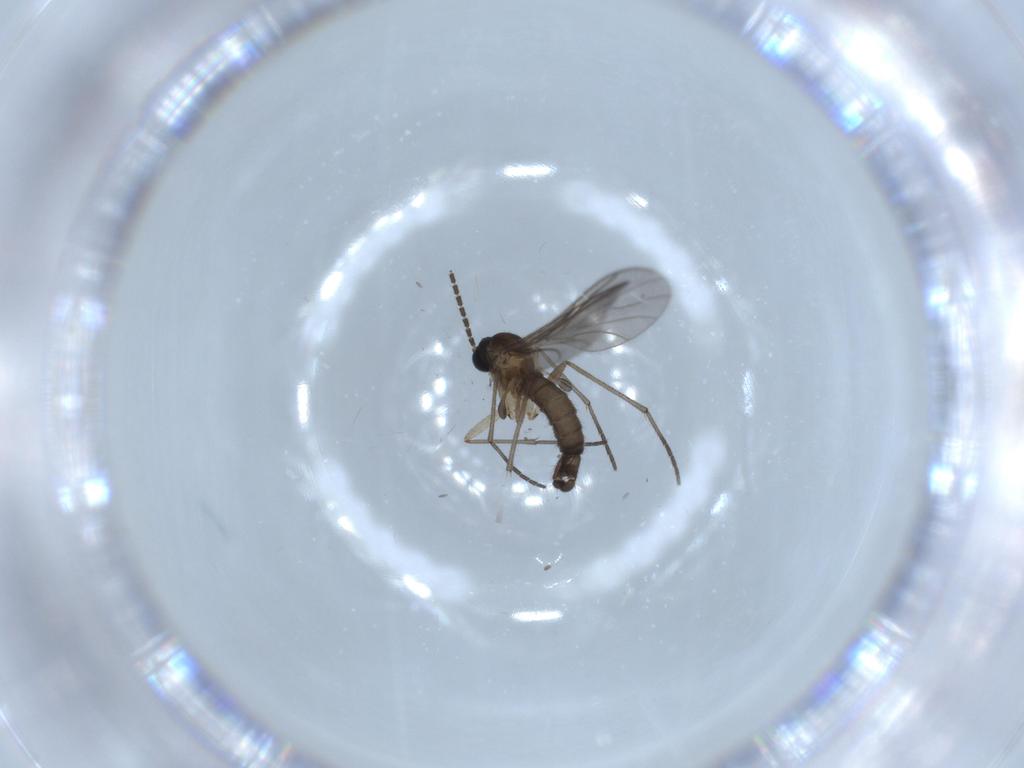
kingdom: Animalia
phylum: Arthropoda
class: Insecta
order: Diptera
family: Sciaridae
